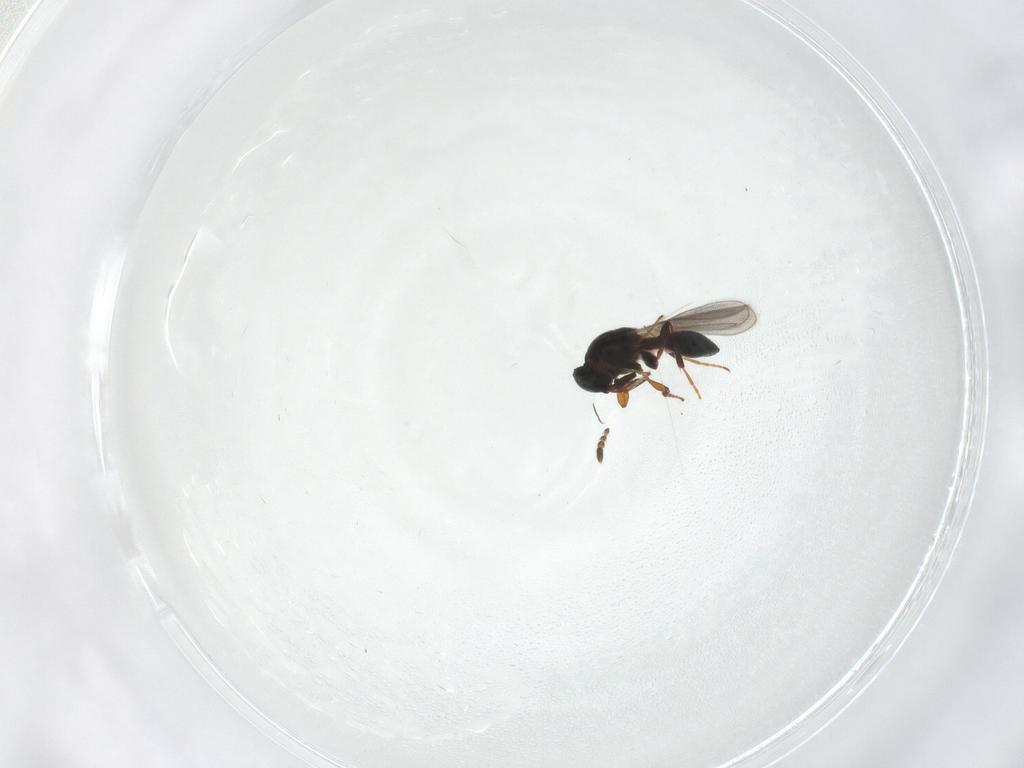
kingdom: Animalia
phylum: Arthropoda
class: Insecta
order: Hymenoptera
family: Platygastridae
